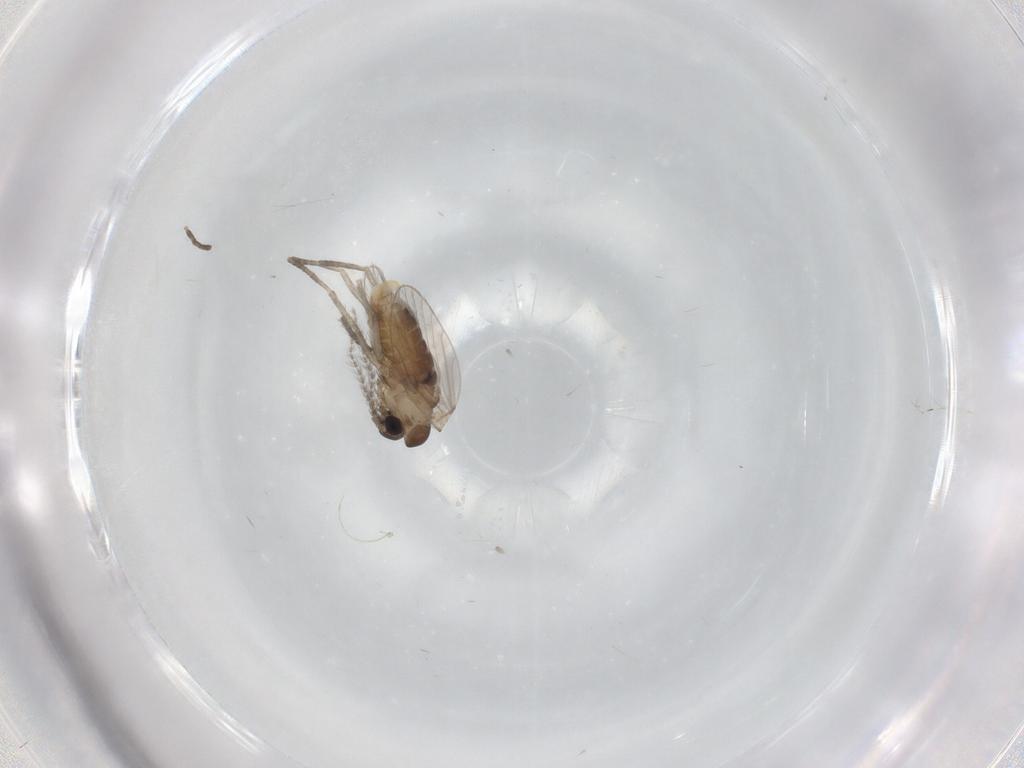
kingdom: Animalia
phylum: Arthropoda
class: Insecta
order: Diptera
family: Psychodidae
